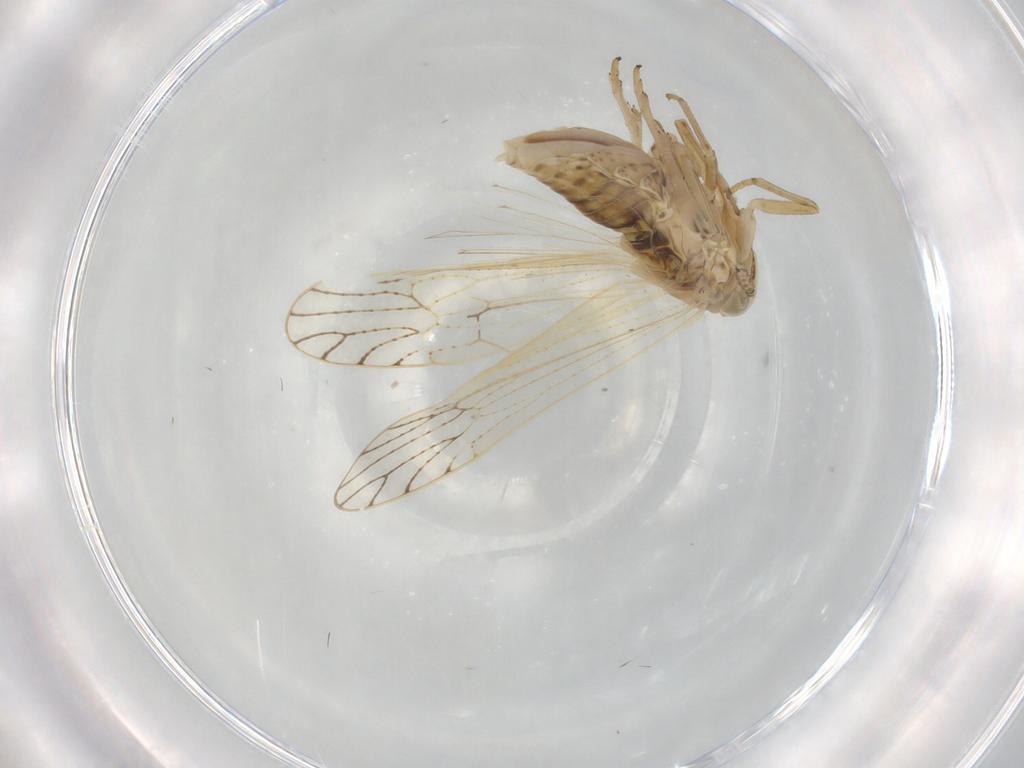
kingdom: Animalia
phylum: Arthropoda
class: Insecta
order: Hemiptera
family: Delphacidae
